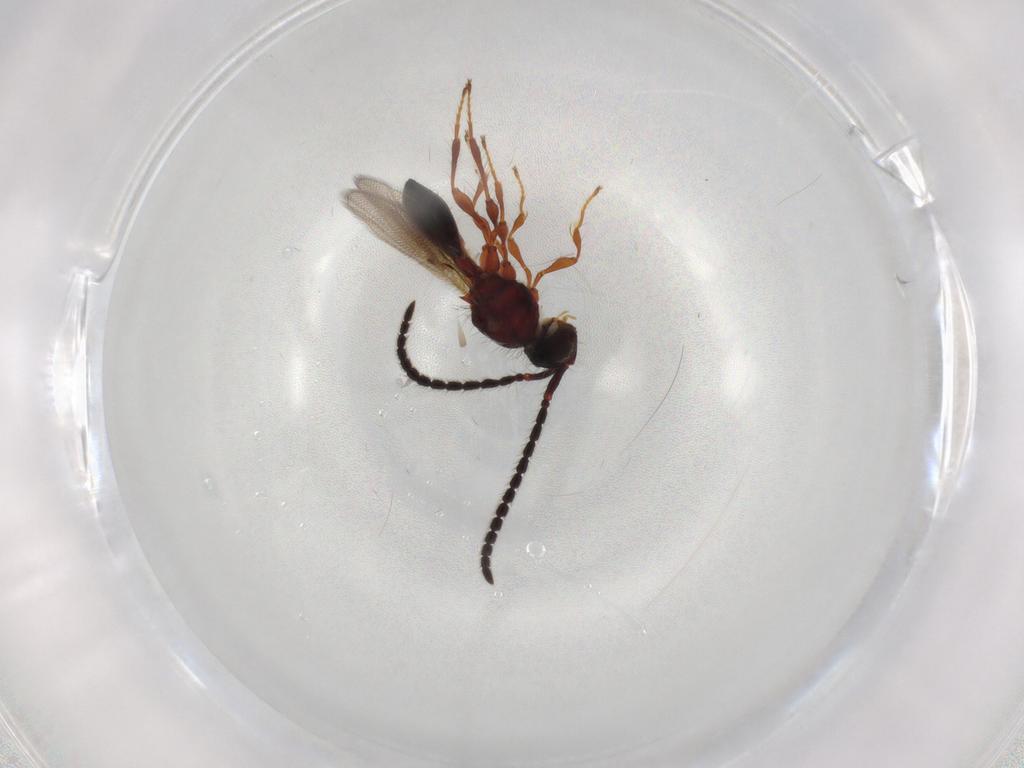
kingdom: Animalia
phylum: Arthropoda
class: Insecta
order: Hymenoptera
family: Diapriidae
